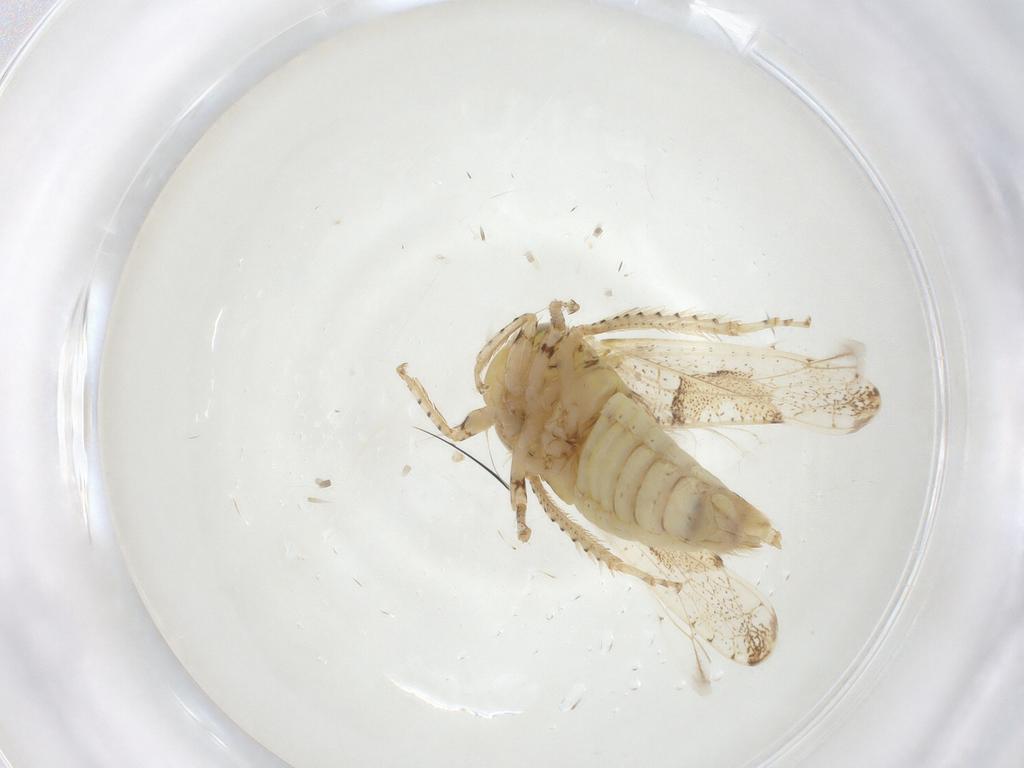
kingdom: Animalia
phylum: Arthropoda
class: Insecta
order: Hemiptera
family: Cicadellidae
